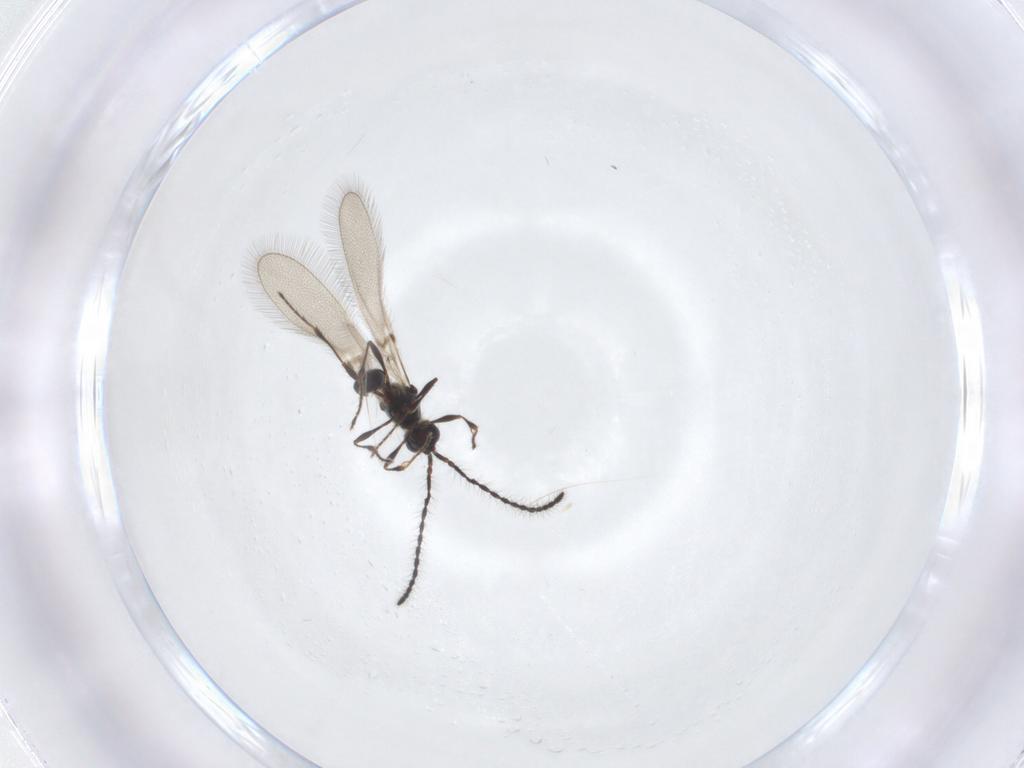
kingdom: Animalia
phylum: Arthropoda
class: Insecta
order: Hymenoptera
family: Diapriidae
